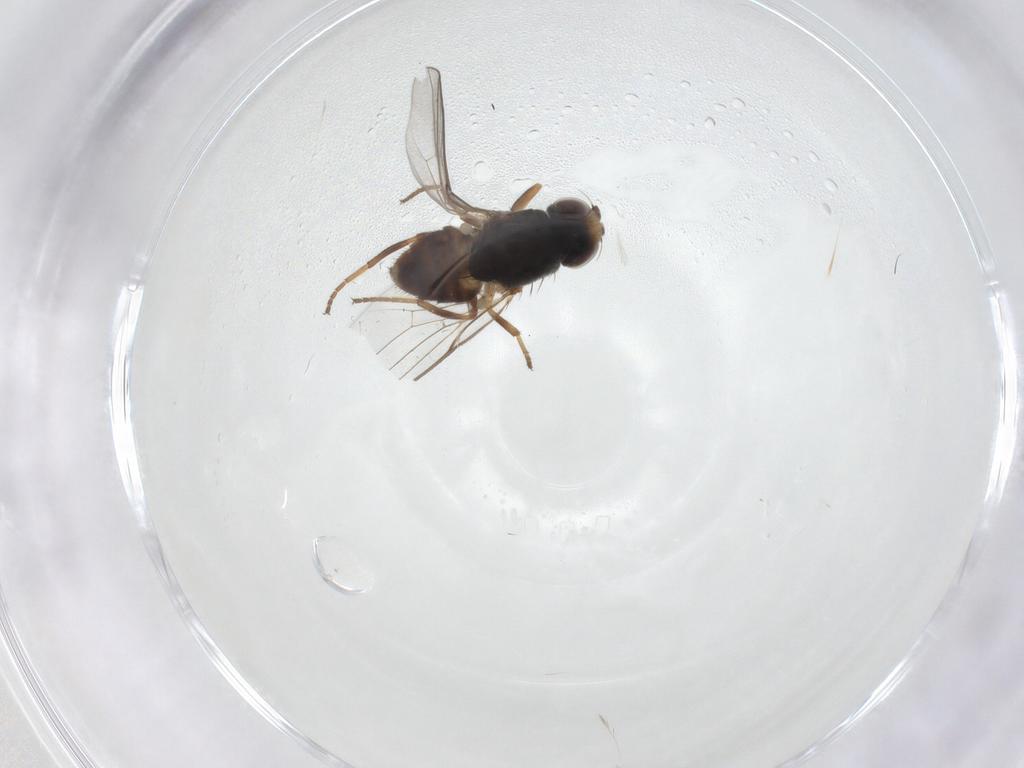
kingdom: Animalia
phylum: Arthropoda
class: Insecta
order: Diptera
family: Chloropidae
